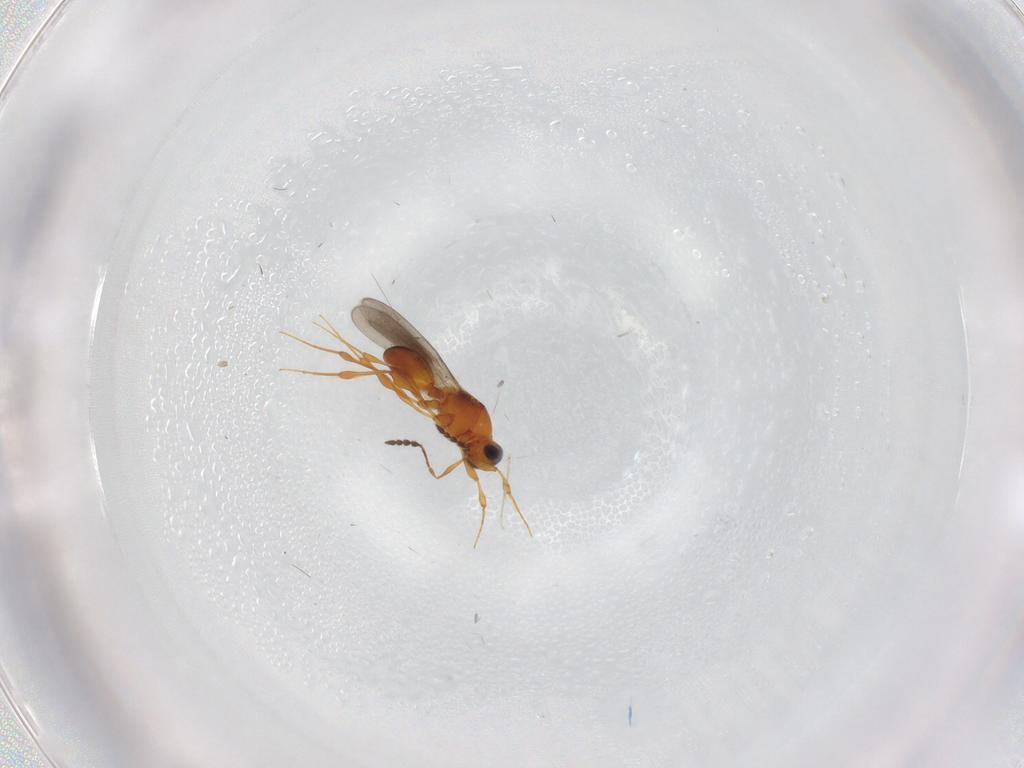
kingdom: Animalia
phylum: Arthropoda
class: Insecta
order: Hymenoptera
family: Platygastridae
